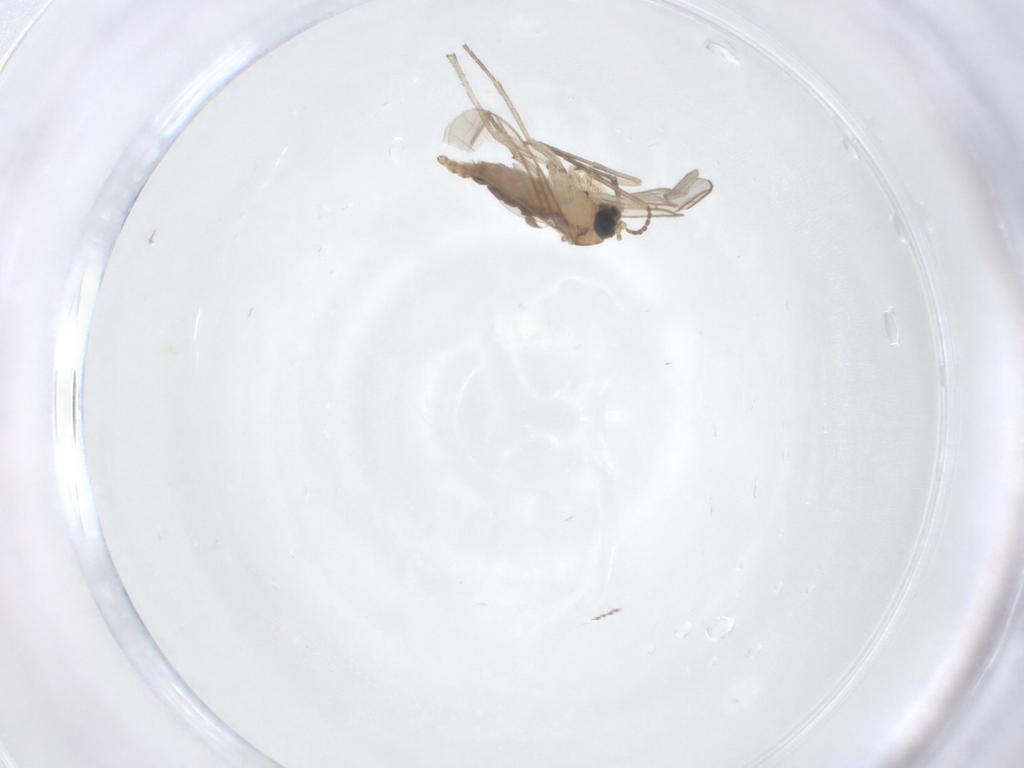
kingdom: Animalia
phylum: Arthropoda
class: Insecta
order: Diptera
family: Sciaridae
